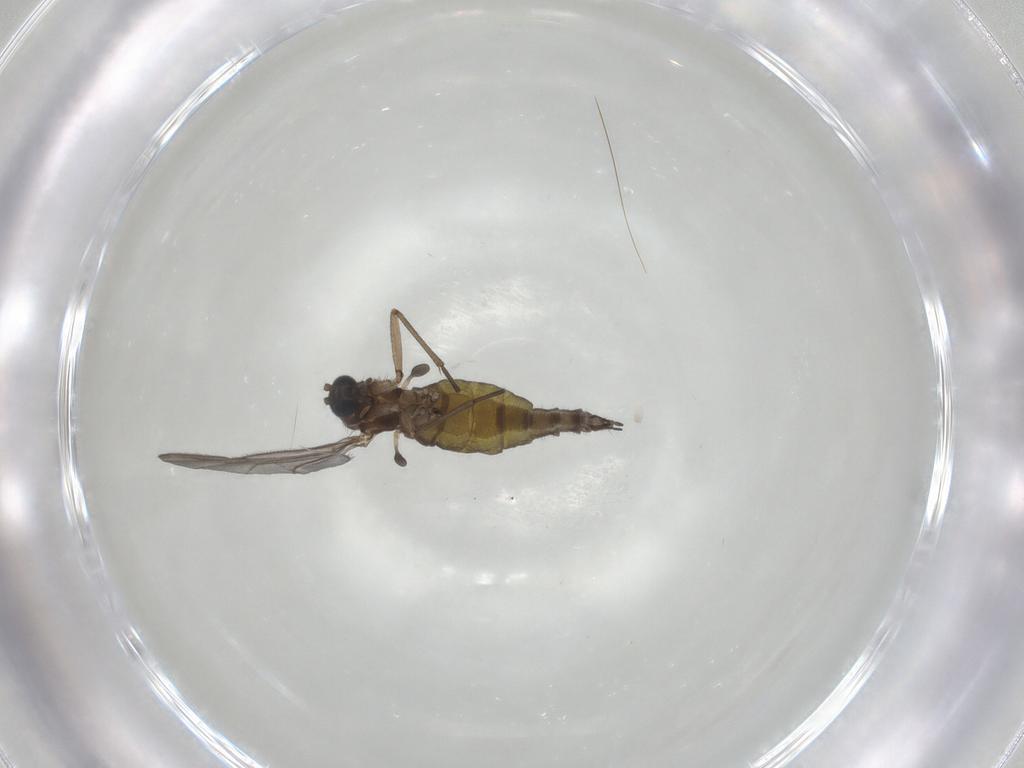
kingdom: Animalia
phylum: Arthropoda
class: Insecta
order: Diptera
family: Sciaridae
